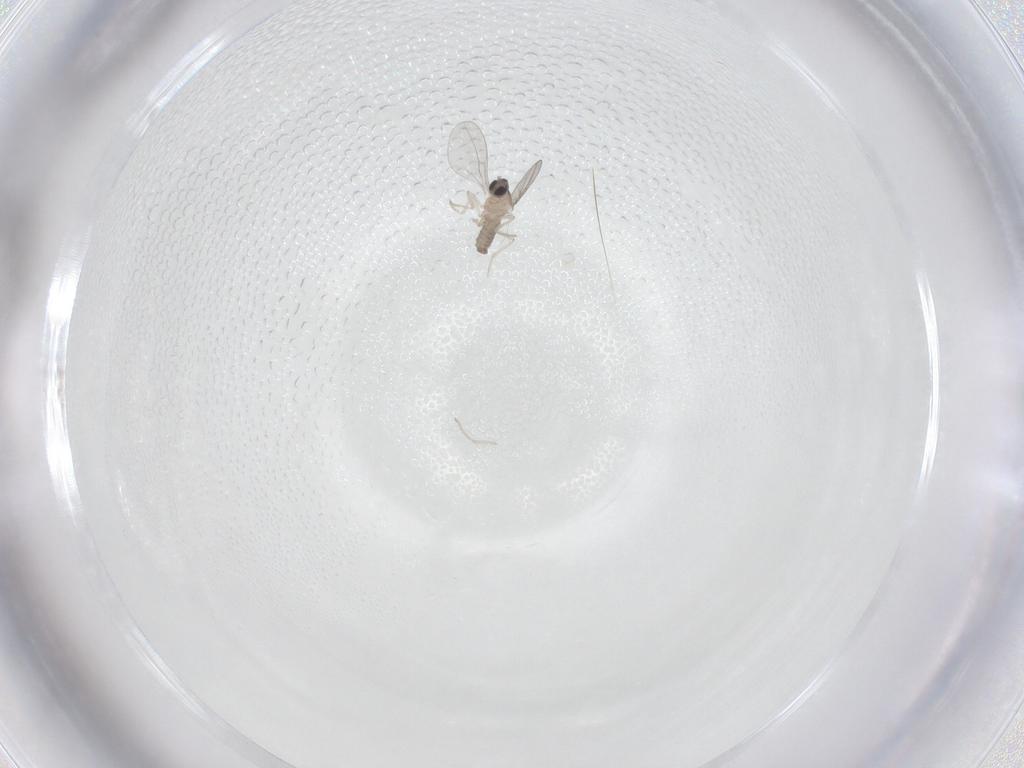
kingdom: Animalia
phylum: Arthropoda
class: Insecta
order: Diptera
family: Cecidomyiidae
